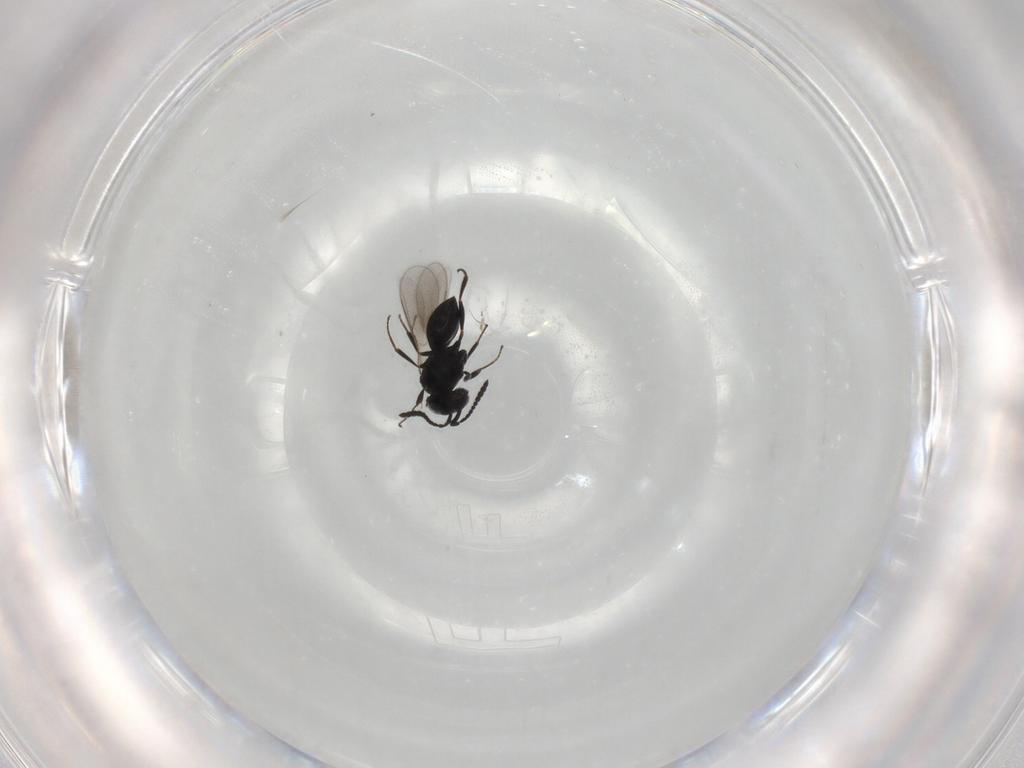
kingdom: Animalia
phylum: Arthropoda
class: Insecta
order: Hymenoptera
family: Scelionidae
